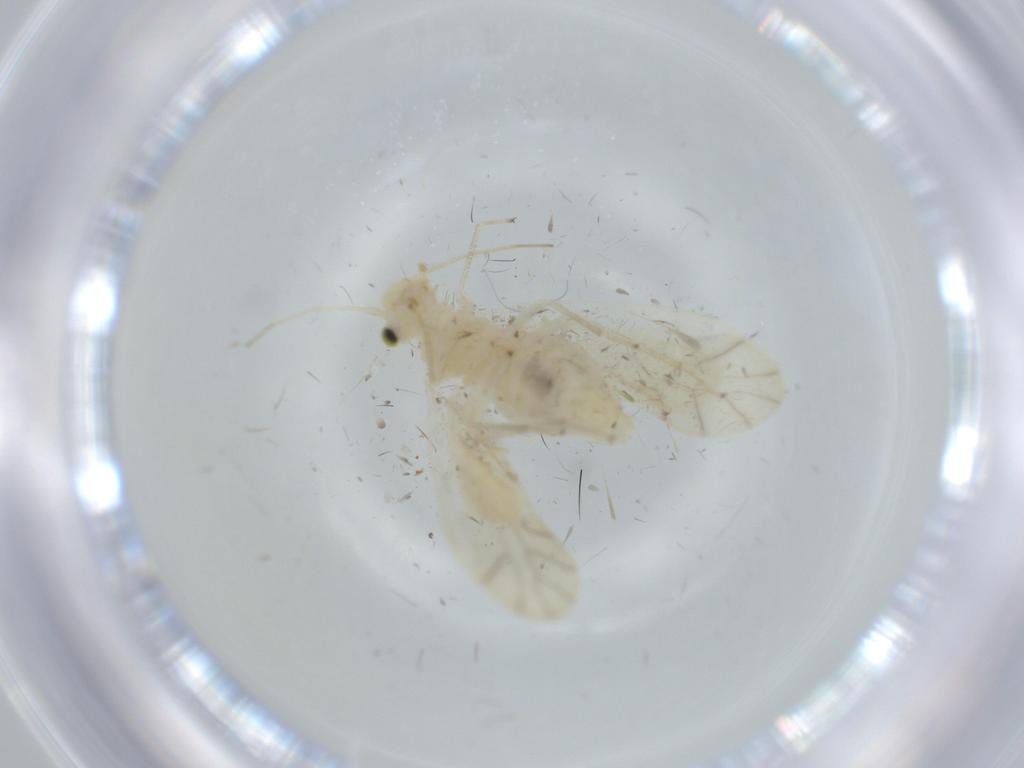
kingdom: Animalia
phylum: Arthropoda
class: Insecta
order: Psocodea
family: Caeciliusidae
